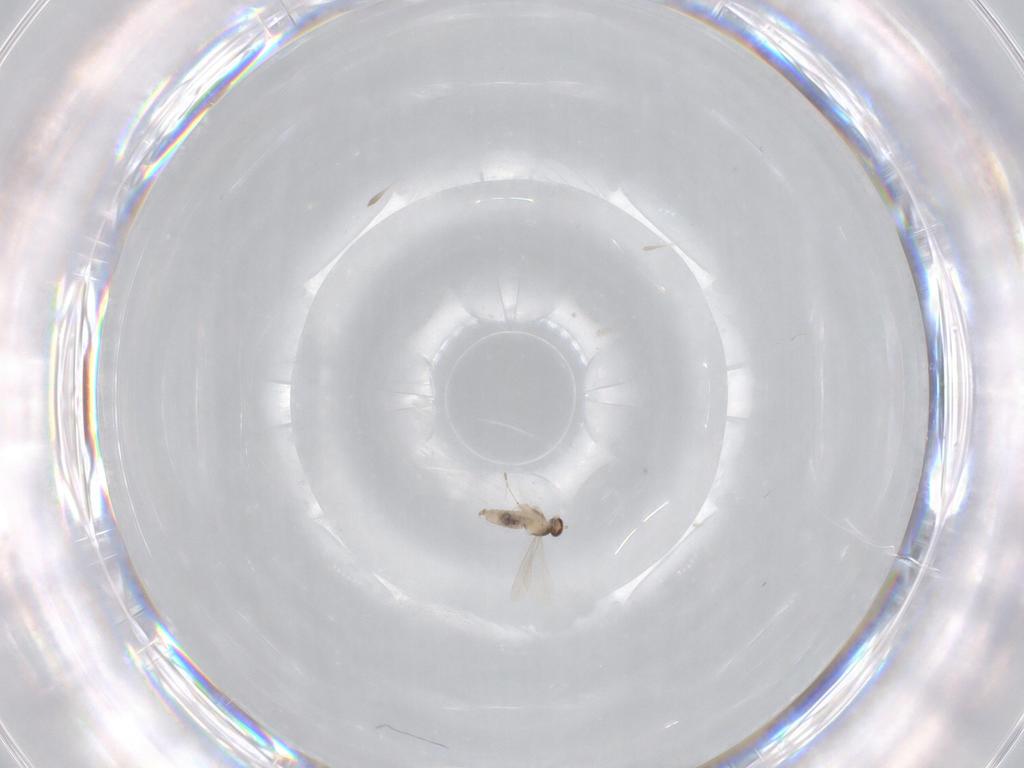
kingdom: Animalia
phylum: Arthropoda
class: Insecta
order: Diptera
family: Cecidomyiidae
